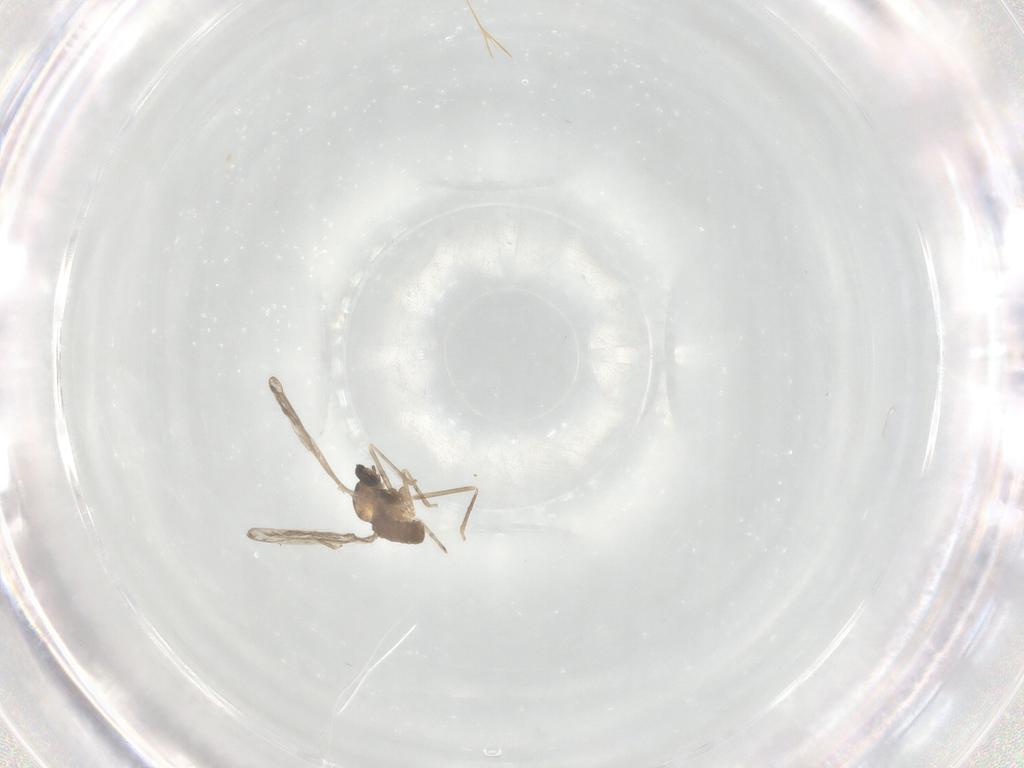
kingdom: Animalia
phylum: Arthropoda
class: Insecta
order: Diptera
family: Cecidomyiidae
